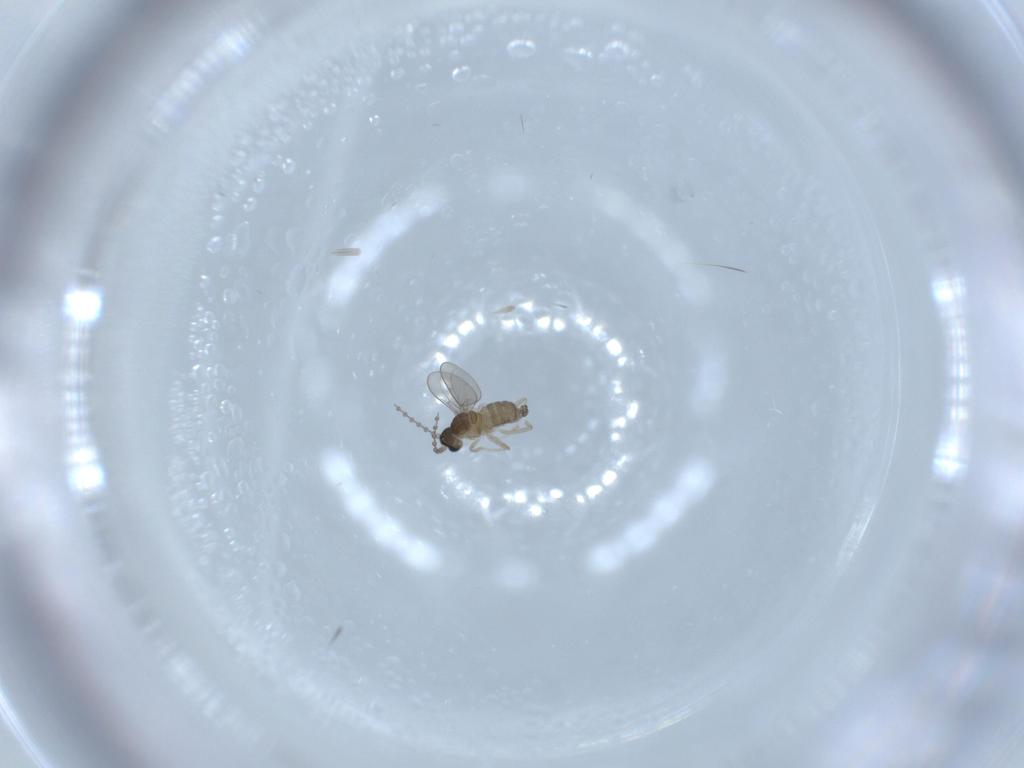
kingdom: Animalia
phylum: Arthropoda
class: Insecta
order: Diptera
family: Cecidomyiidae
